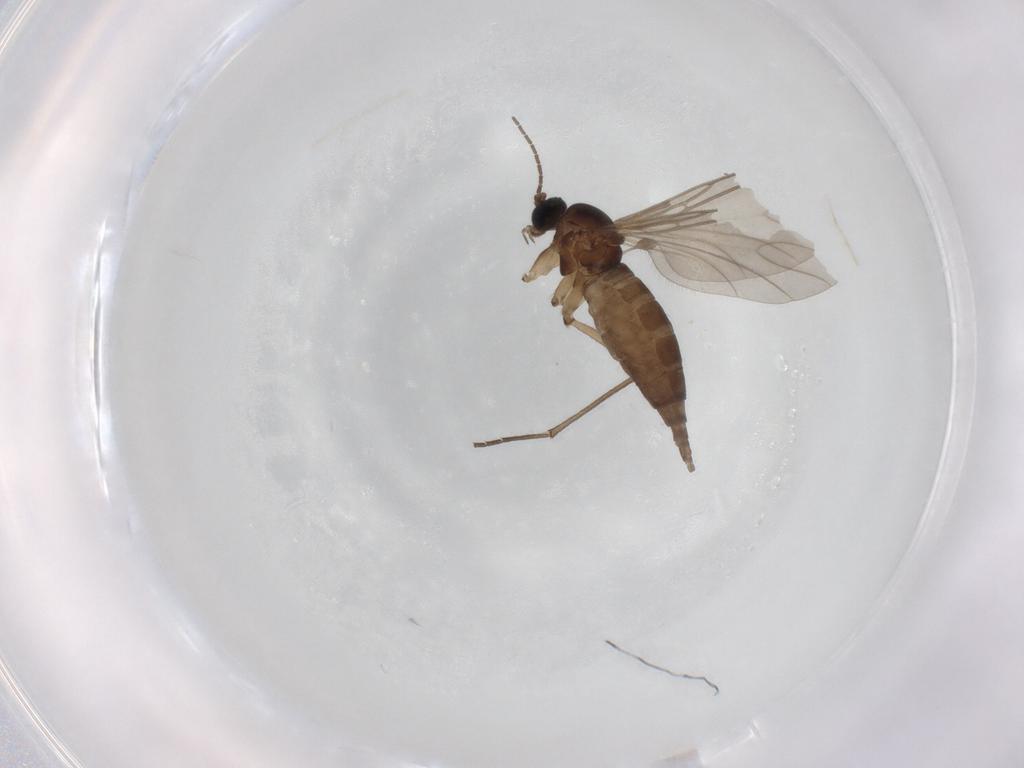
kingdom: Animalia
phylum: Arthropoda
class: Insecta
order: Diptera
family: Sciaridae
